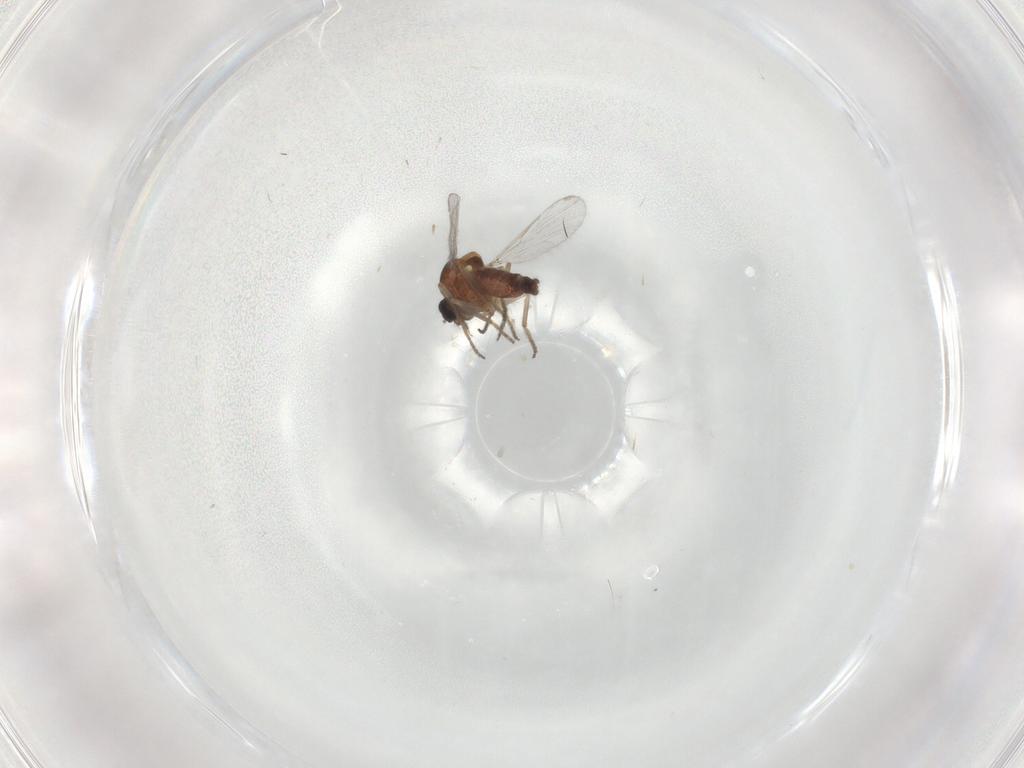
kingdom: Animalia
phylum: Arthropoda
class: Insecta
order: Diptera
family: Ceratopogonidae
